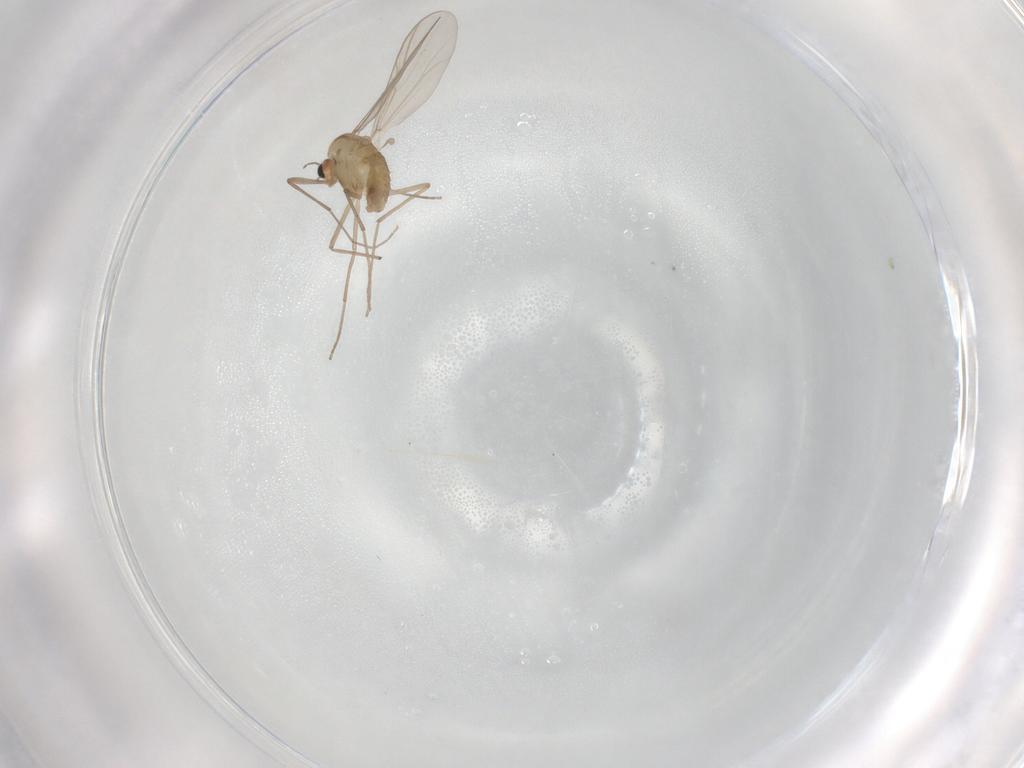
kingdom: Animalia
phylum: Arthropoda
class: Insecta
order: Diptera
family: Chironomidae
